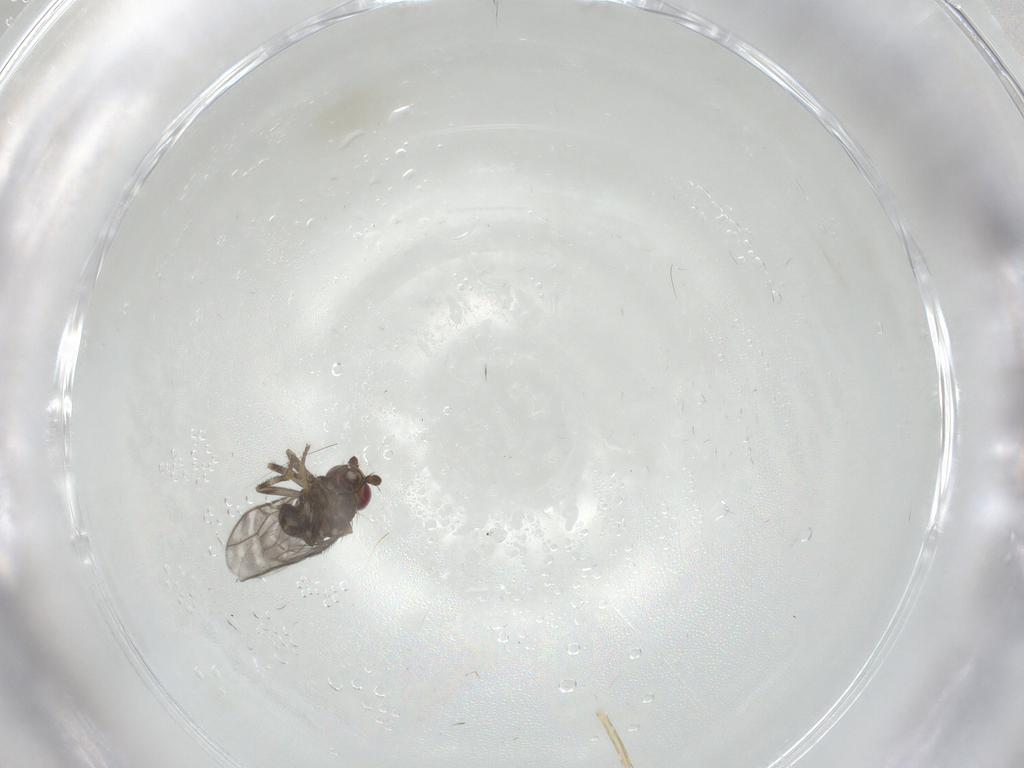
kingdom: Animalia
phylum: Arthropoda
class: Insecta
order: Diptera
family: Sphaeroceridae
